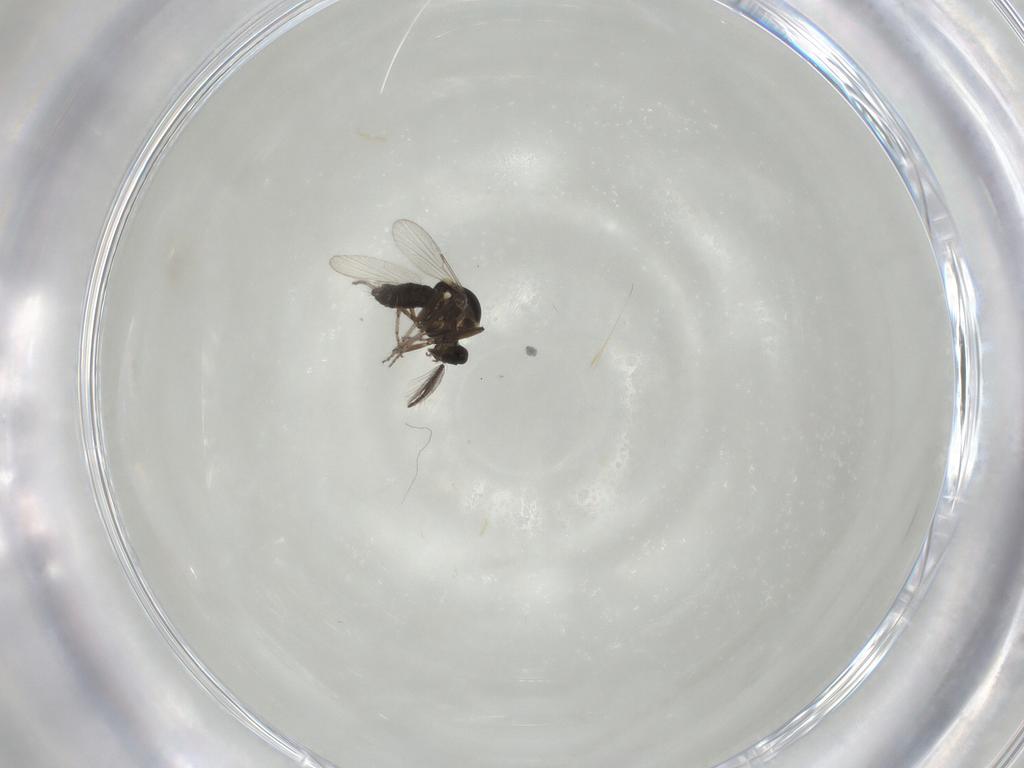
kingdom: Animalia
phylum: Arthropoda
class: Insecta
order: Diptera
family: Ceratopogonidae
